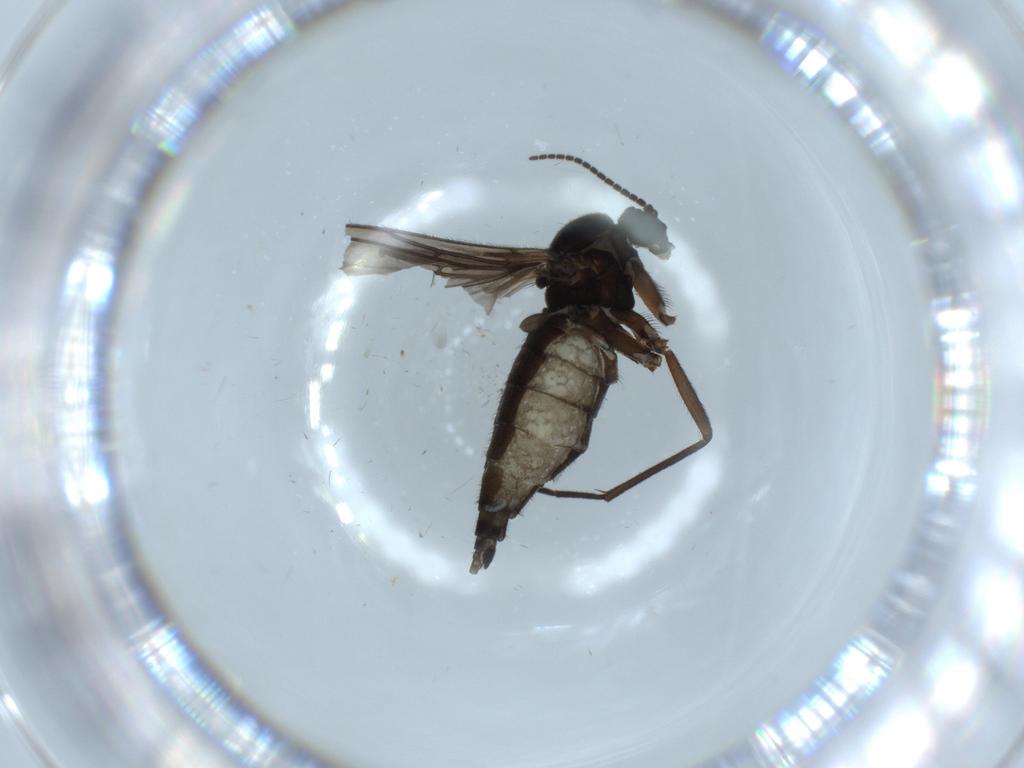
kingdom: Animalia
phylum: Arthropoda
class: Insecta
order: Diptera
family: Sciaridae
